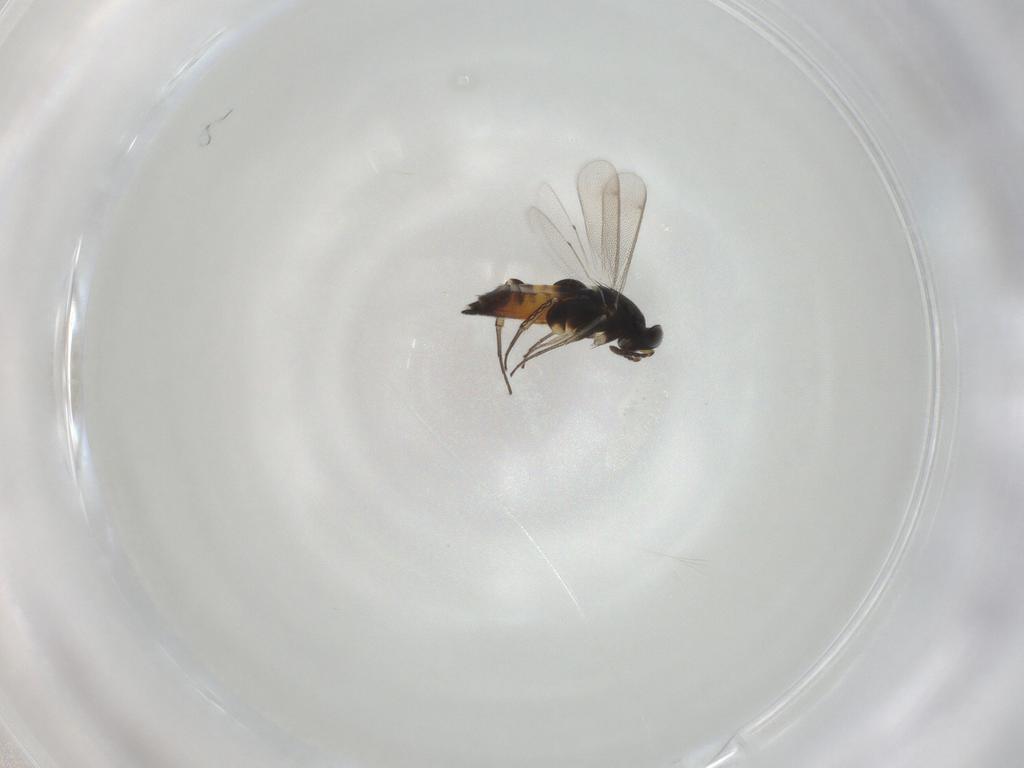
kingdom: Animalia
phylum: Arthropoda
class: Insecta
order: Hymenoptera
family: Eulophidae
